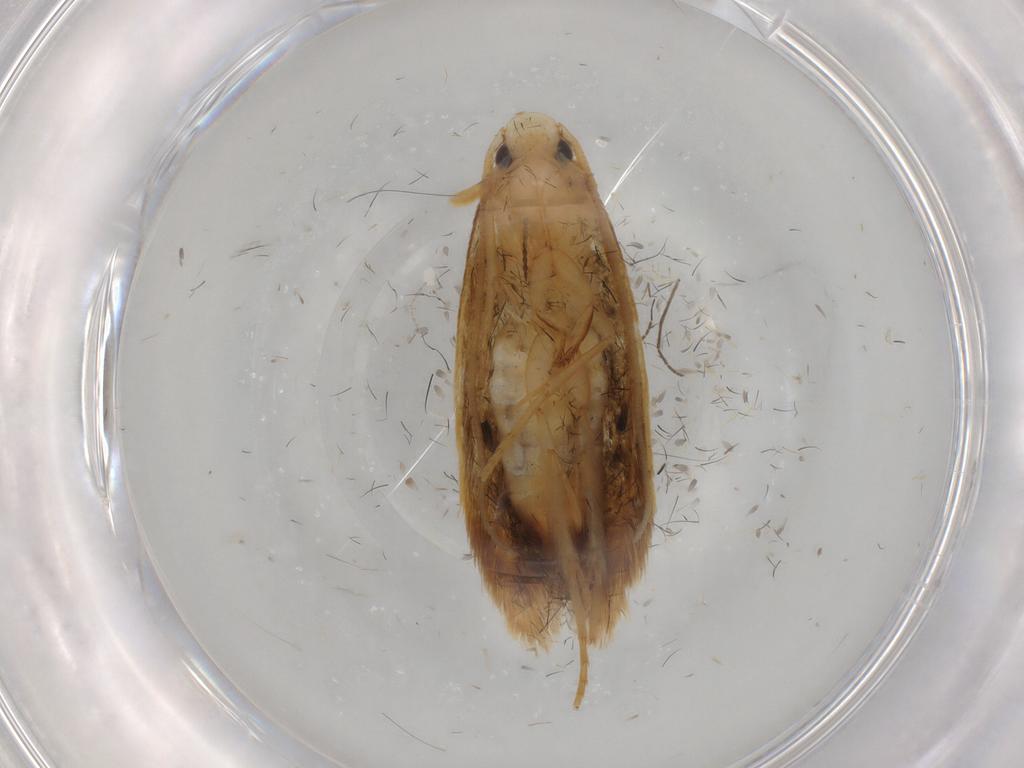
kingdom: Animalia
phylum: Arthropoda
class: Insecta
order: Lepidoptera
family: Tineidae
